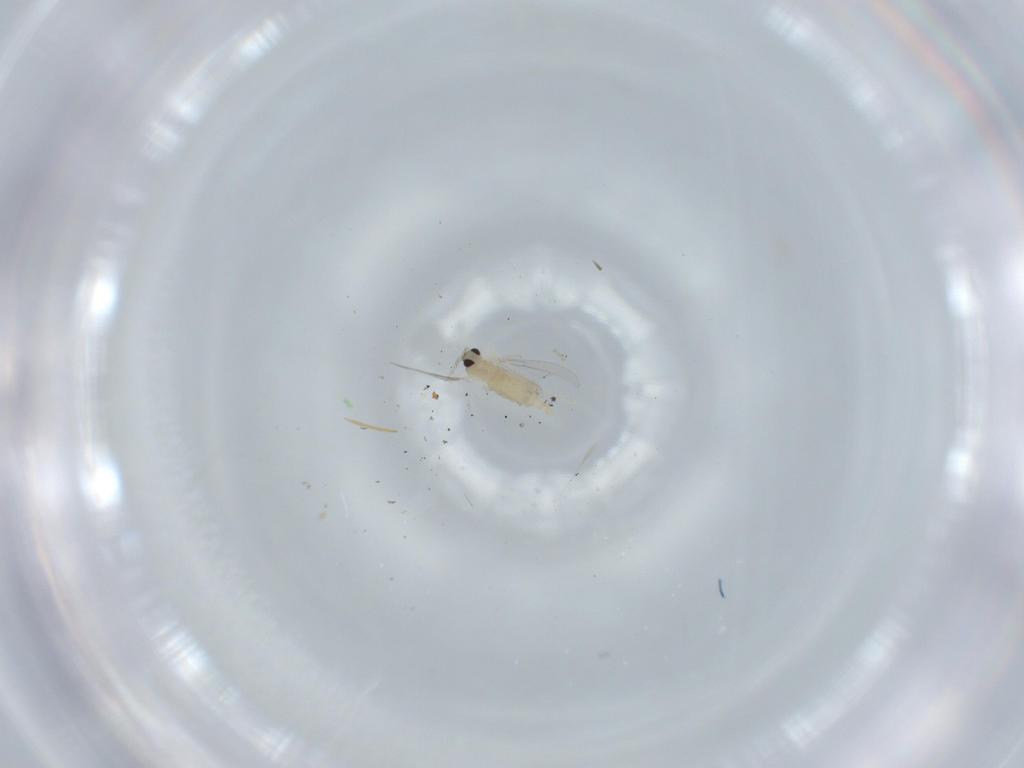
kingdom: Animalia
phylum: Arthropoda
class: Insecta
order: Diptera
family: Cecidomyiidae
